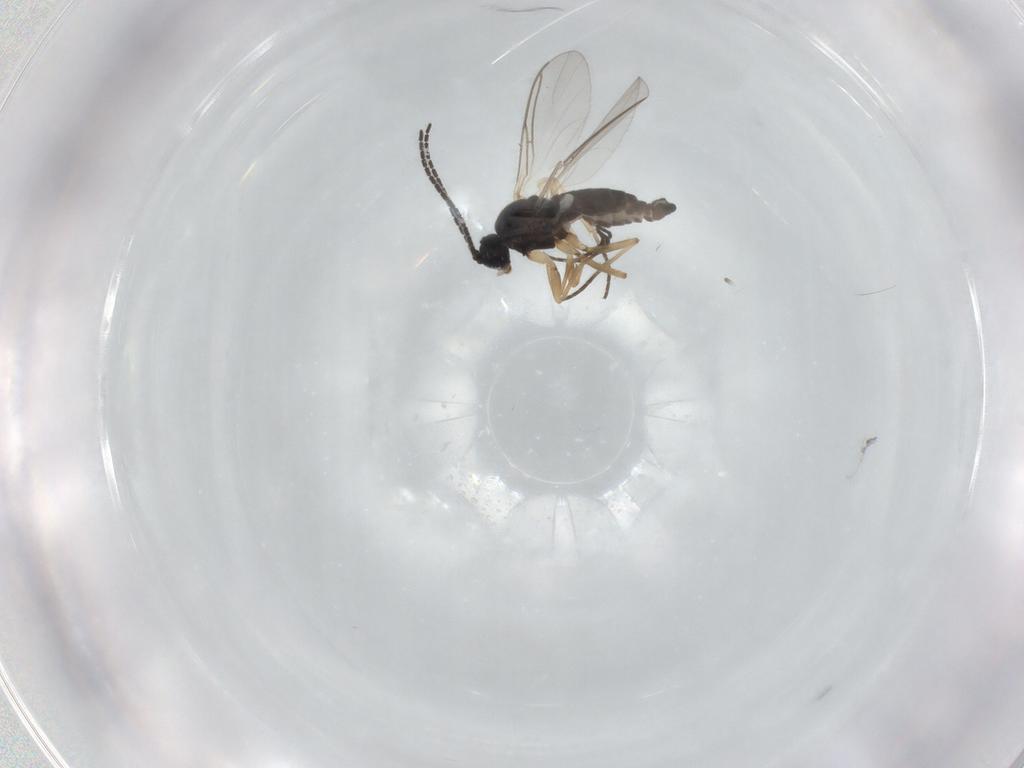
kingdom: Animalia
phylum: Arthropoda
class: Insecta
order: Diptera
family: Sciaridae
